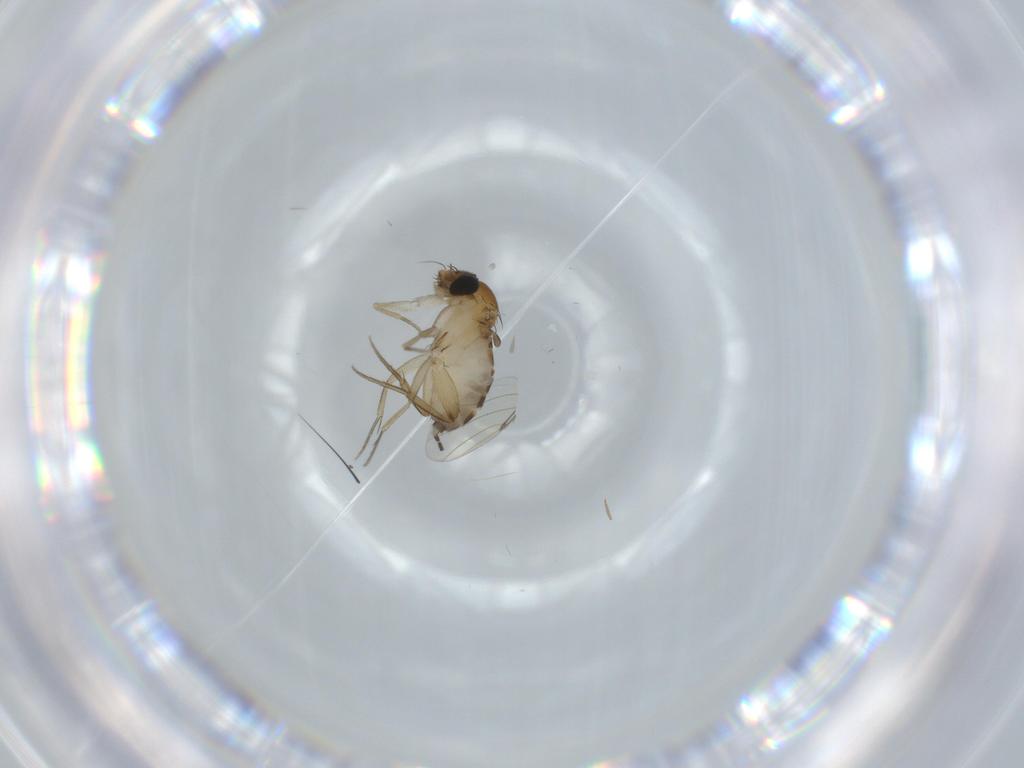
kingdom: Animalia
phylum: Arthropoda
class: Insecta
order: Diptera
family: Phoridae
